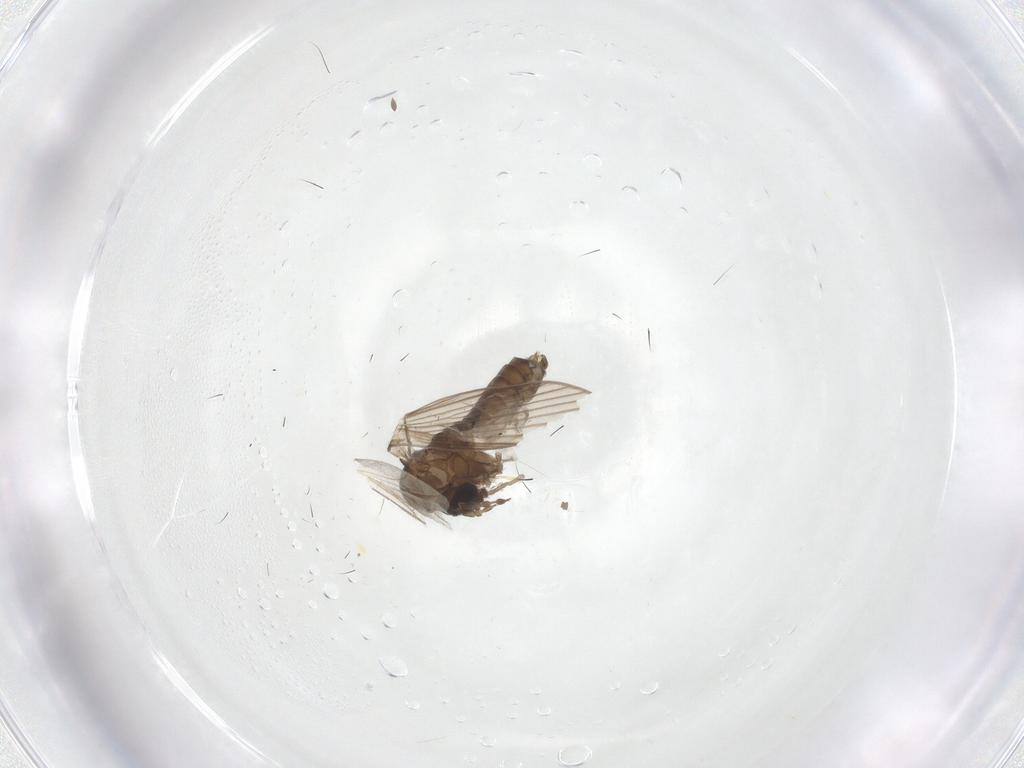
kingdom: Animalia
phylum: Arthropoda
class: Insecta
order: Diptera
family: Psychodidae
